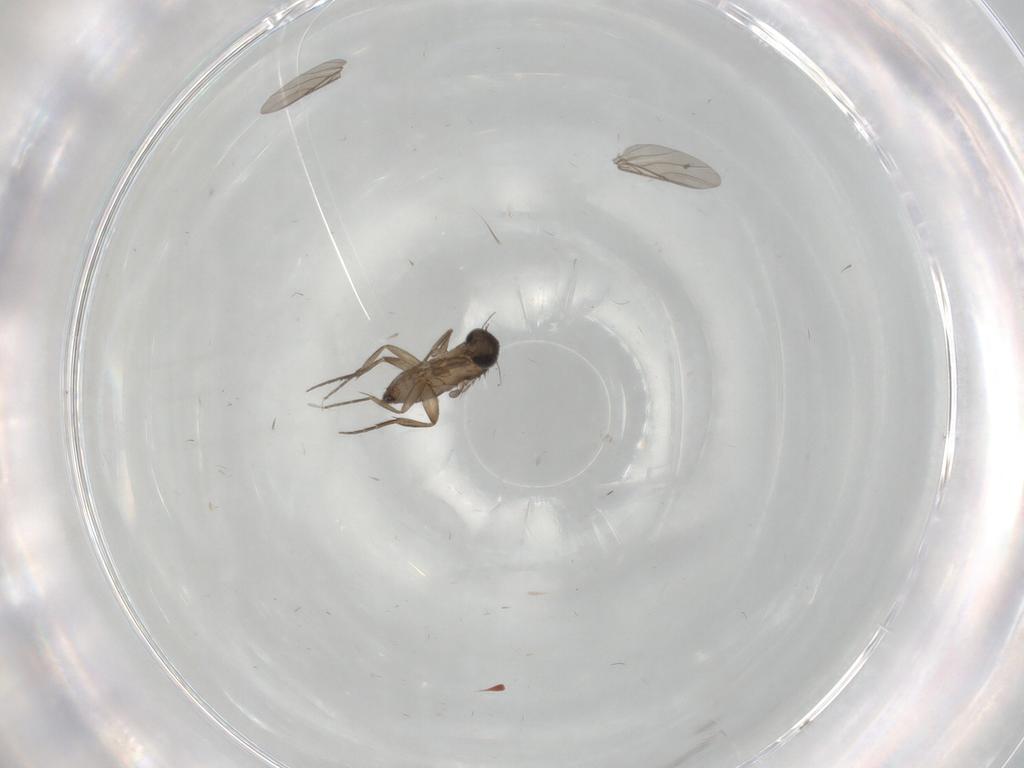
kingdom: Animalia
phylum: Arthropoda
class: Insecta
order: Diptera
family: Phoridae
